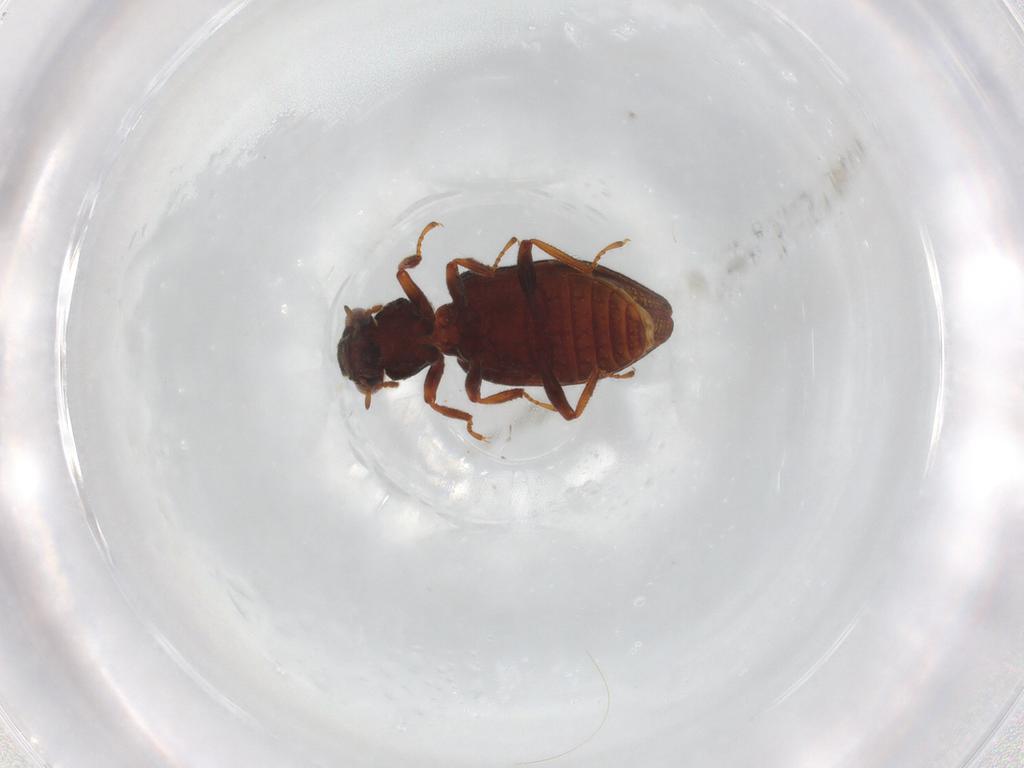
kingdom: Animalia
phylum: Arthropoda
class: Insecta
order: Coleoptera
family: Hydrophilidae
